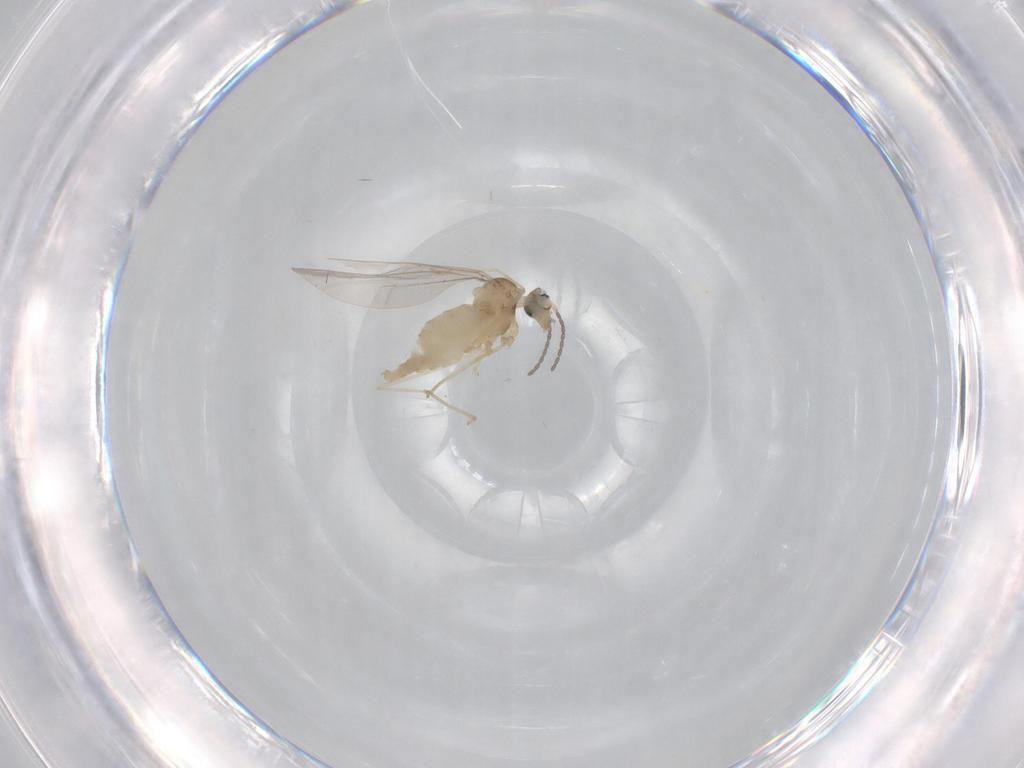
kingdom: Animalia
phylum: Arthropoda
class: Insecta
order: Diptera
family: Cecidomyiidae
